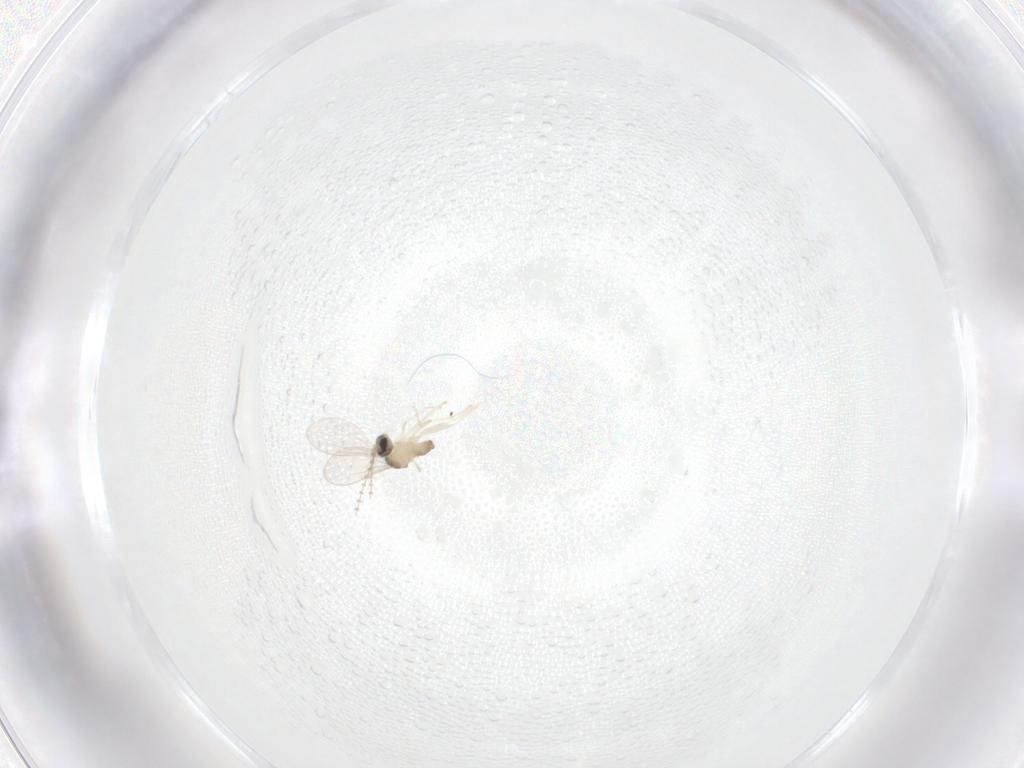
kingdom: Animalia
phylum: Arthropoda
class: Insecta
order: Diptera
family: Cecidomyiidae
